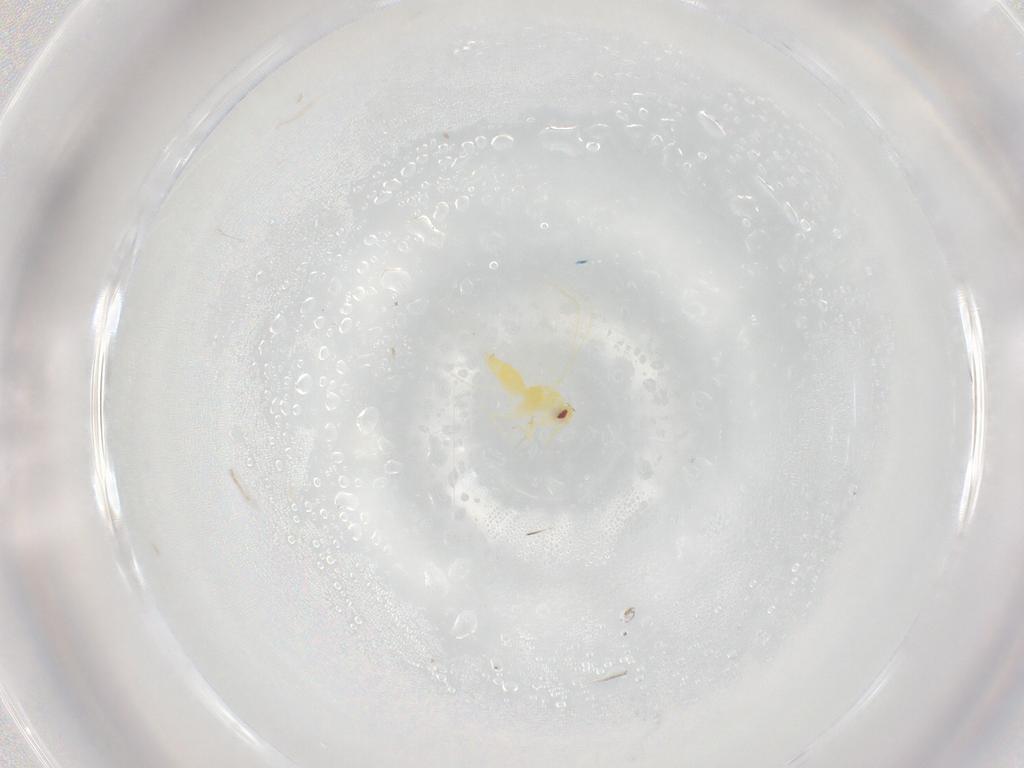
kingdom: Animalia
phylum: Arthropoda
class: Insecta
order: Hemiptera
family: Aleyrodidae
